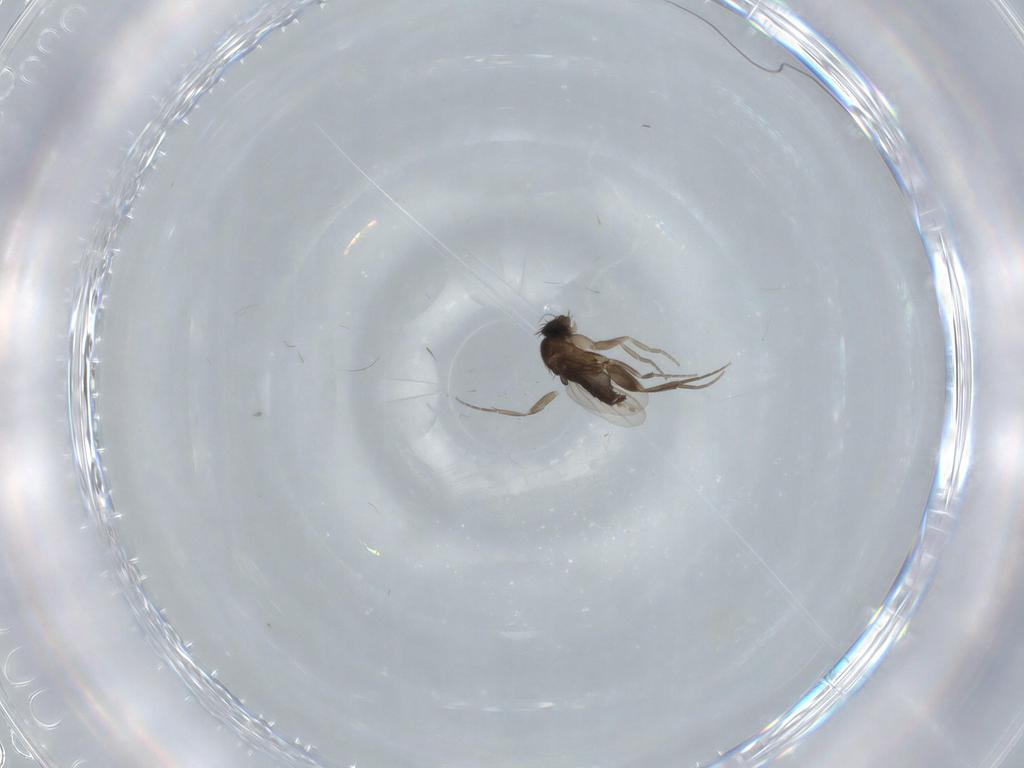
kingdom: Animalia
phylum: Arthropoda
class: Insecta
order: Diptera
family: Phoridae
